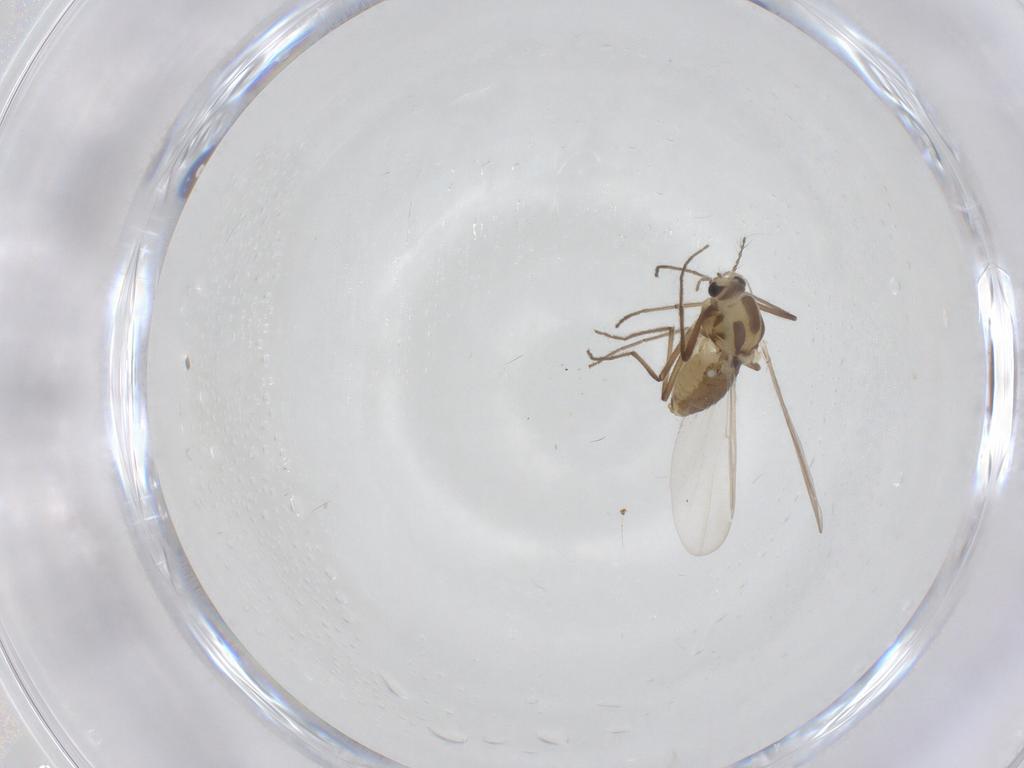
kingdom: Animalia
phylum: Arthropoda
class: Insecta
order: Diptera
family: Chironomidae
